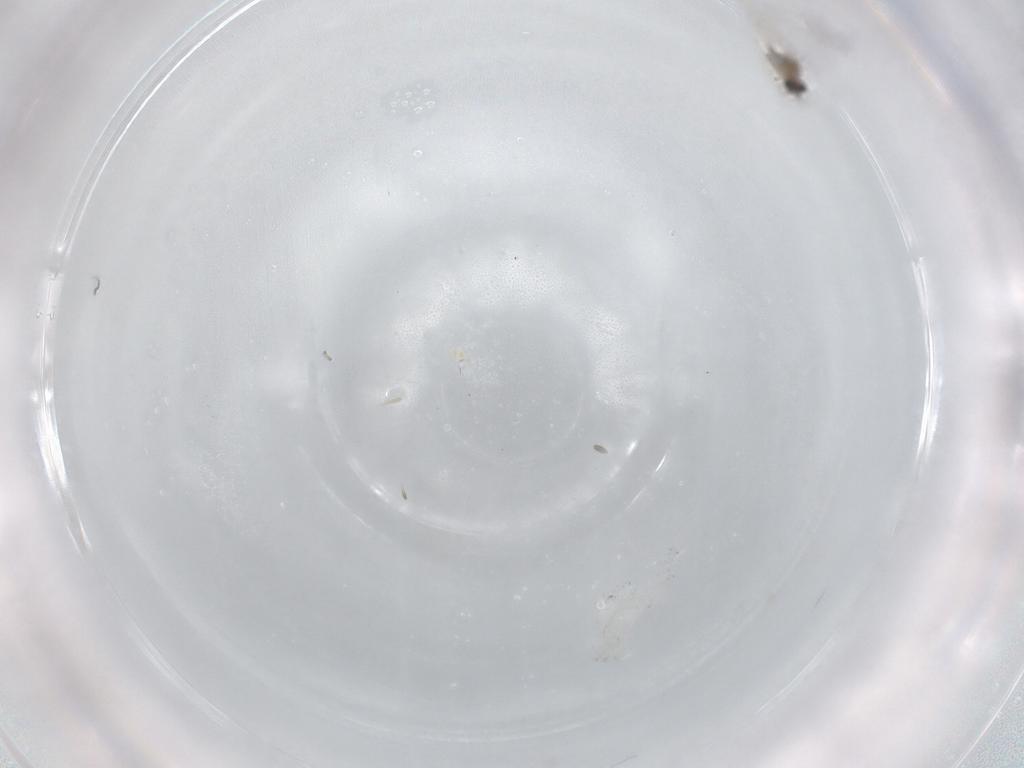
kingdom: Animalia
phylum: Arthropoda
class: Insecta
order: Diptera
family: Cecidomyiidae
